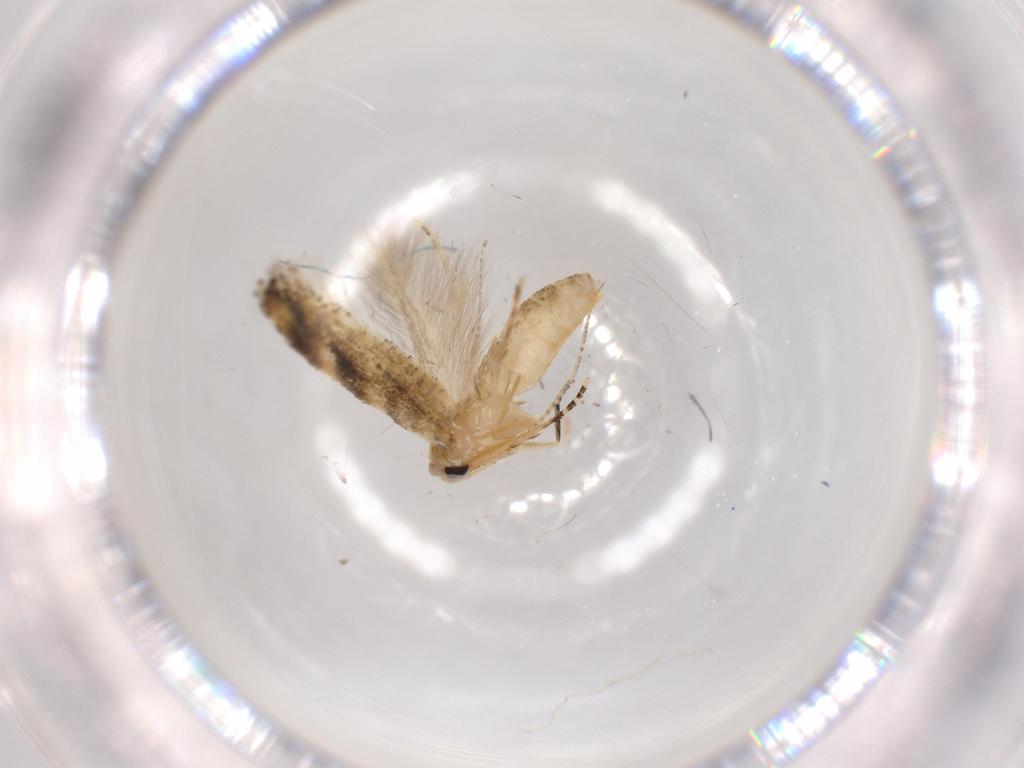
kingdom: Animalia
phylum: Arthropoda
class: Insecta
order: Lepidoptera
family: Bucculatricidae
